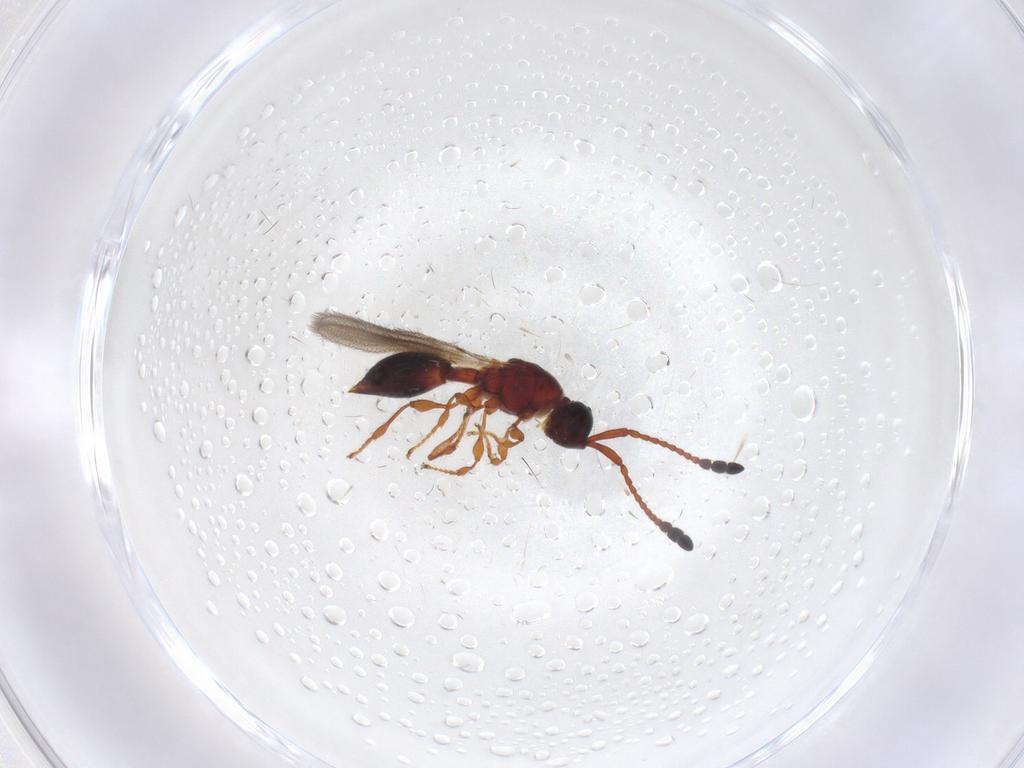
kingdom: Animalia
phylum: Arthropoda
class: Insecta
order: Hymenoptera
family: Diapriidae
